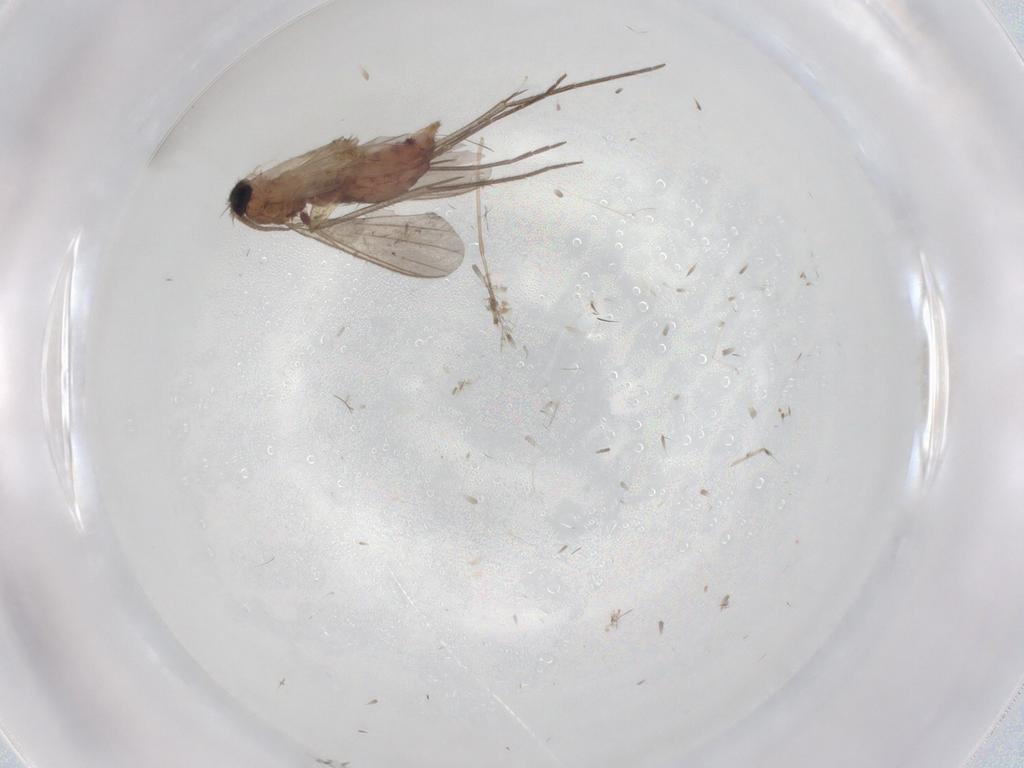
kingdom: Animalia
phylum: Arthropoda
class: Insecta
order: Diptera
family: Mycetophilidae
